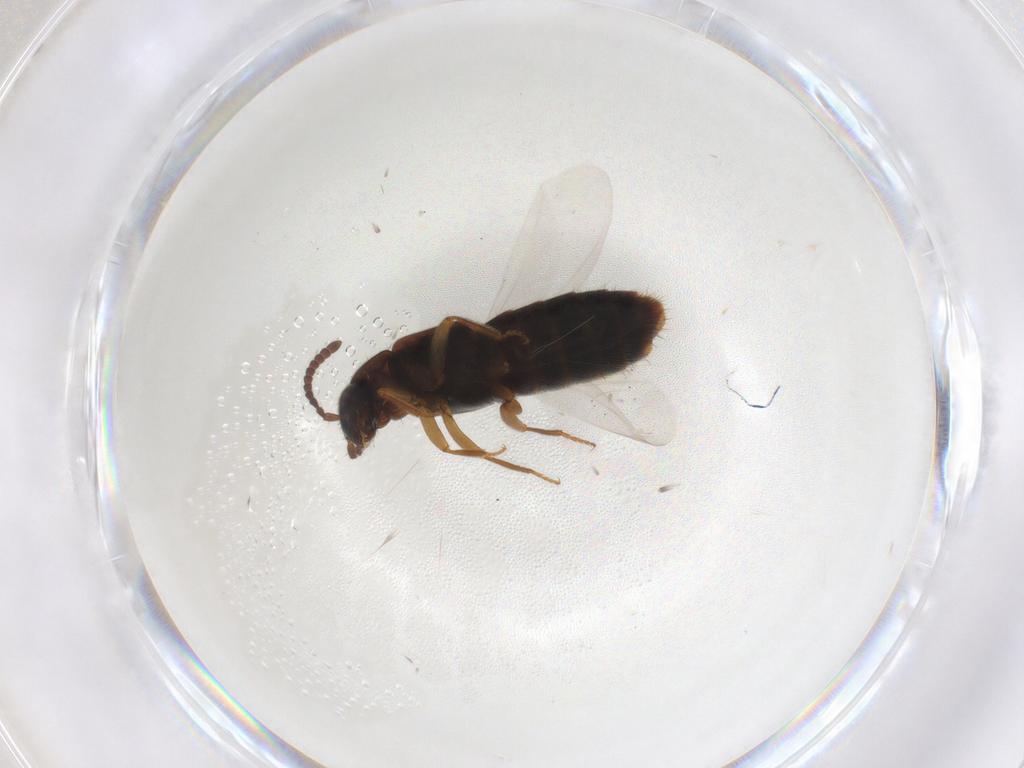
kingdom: Animalia
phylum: Arthropoda
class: Insecta
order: Coleoptera
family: Staphylinidae
